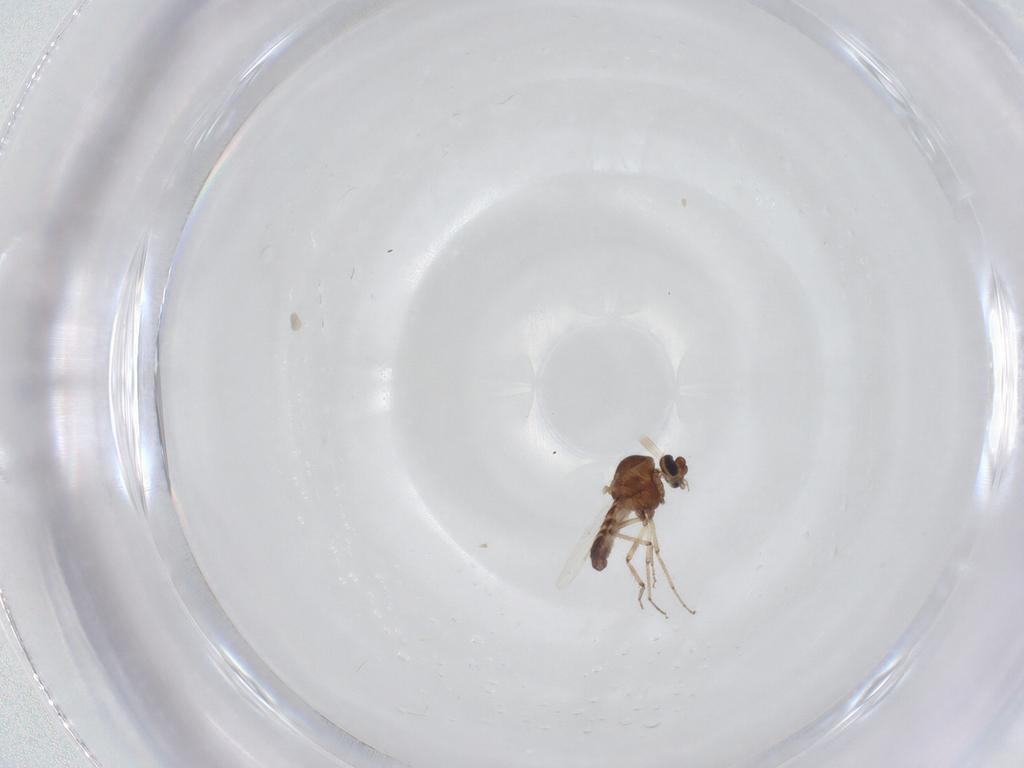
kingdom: Animalia
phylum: Arthropoda
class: Insecta
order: Diptera
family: Ceratopogonidae
